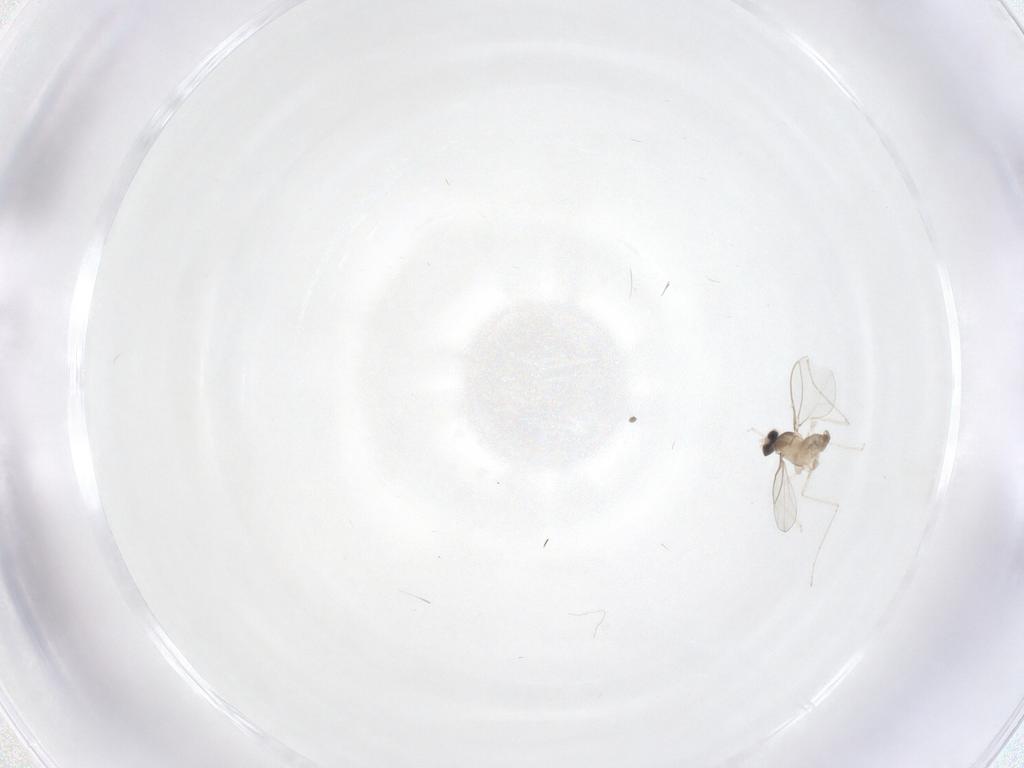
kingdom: Animalia
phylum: Arthropoda
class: Insecta
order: Diptera
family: Cecidomyiidae
